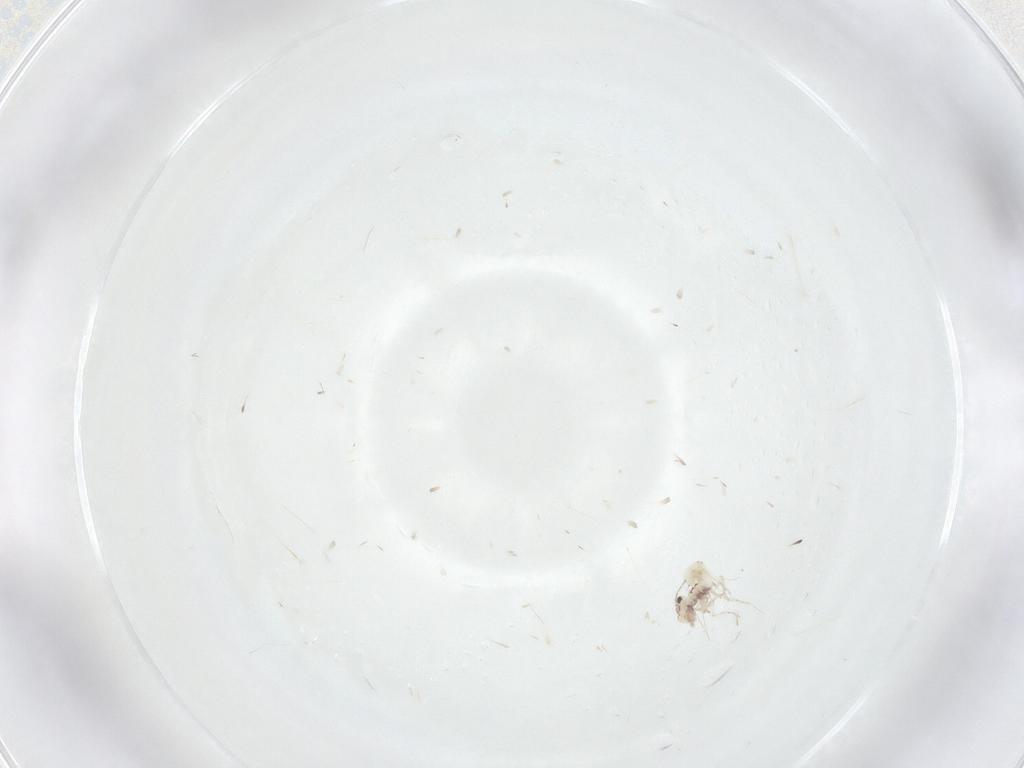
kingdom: Animalia
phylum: Arthropoda
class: Insecta
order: Psocodea
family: Lepidopsocidae
